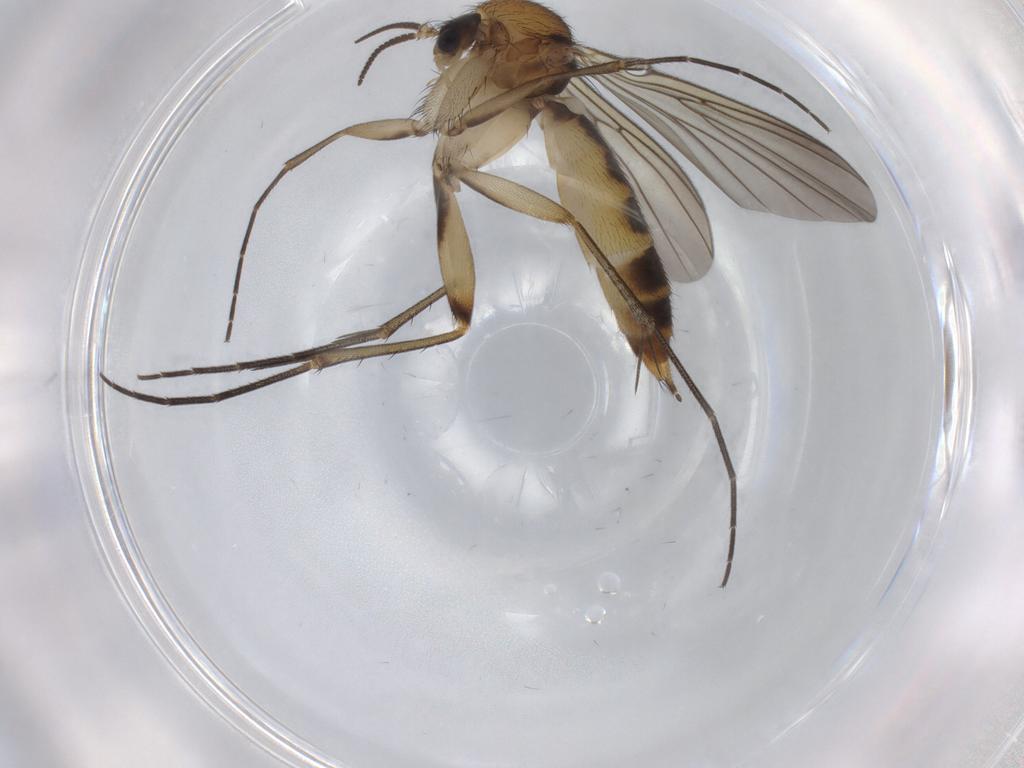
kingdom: Animalia
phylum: Arthropoda
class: Insecta
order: Diptera
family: Mycetophilidae
